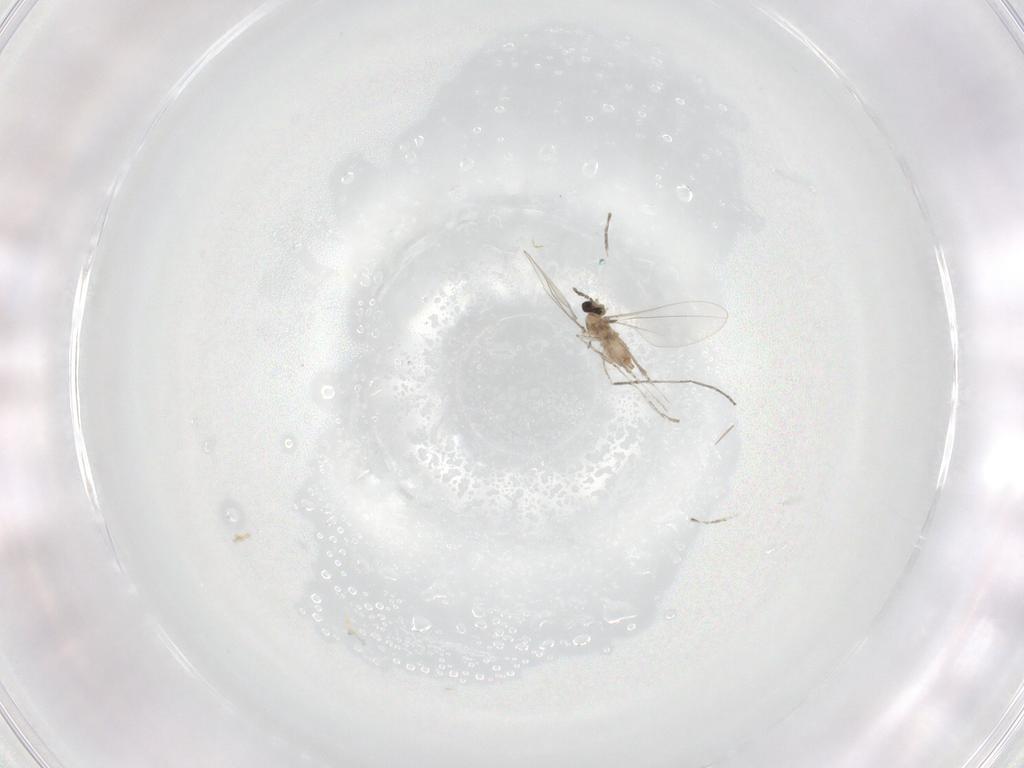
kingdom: Animalia
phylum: Arthropoda
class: Insecta
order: Diptera
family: Cecidomyiidae
